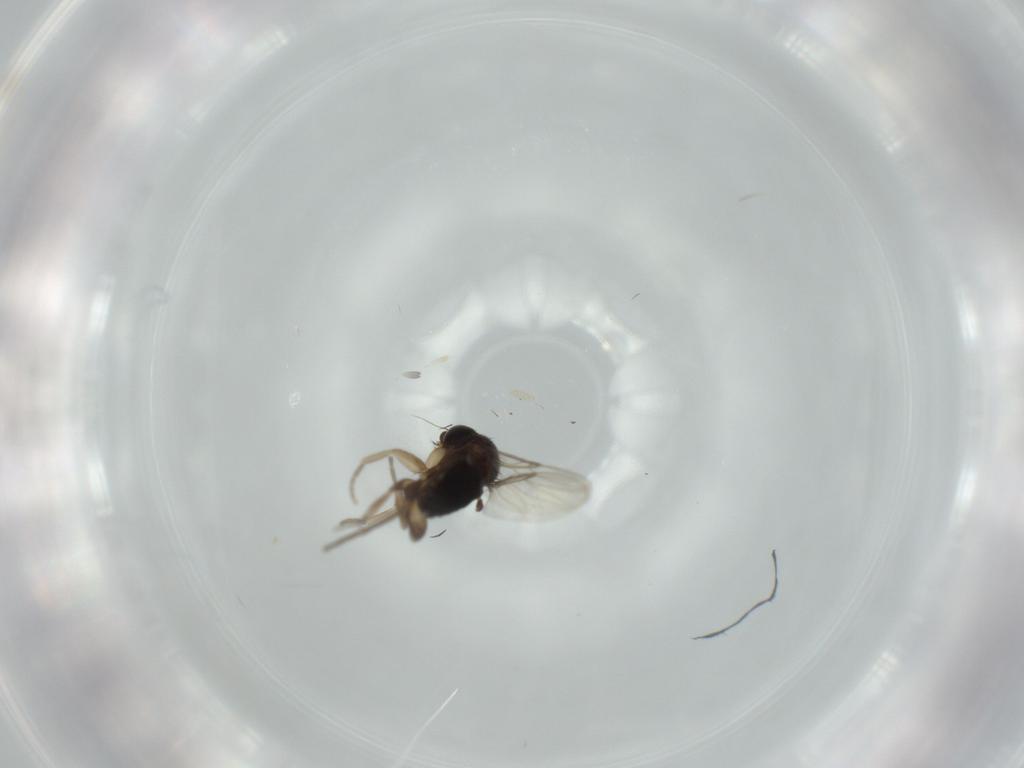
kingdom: Animalia
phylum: Arthropoda
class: Insecta
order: Diptera
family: Phoridae
